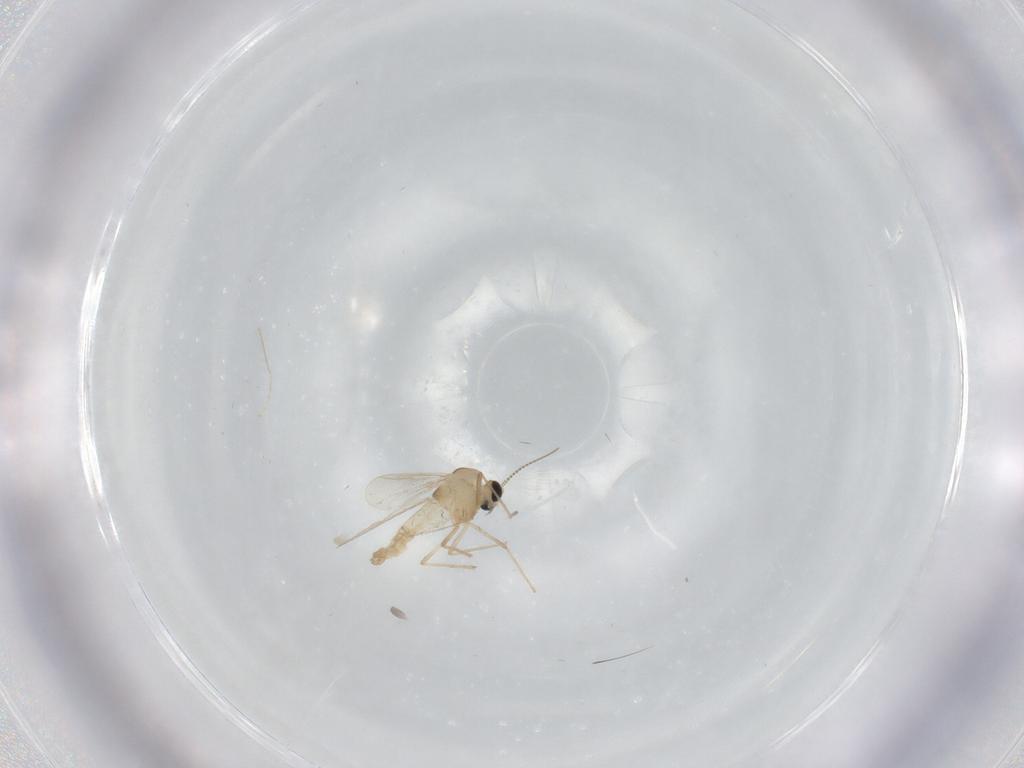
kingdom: Animalia
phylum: Arthropoda
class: Insecta
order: Diptera
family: Chironomidae
